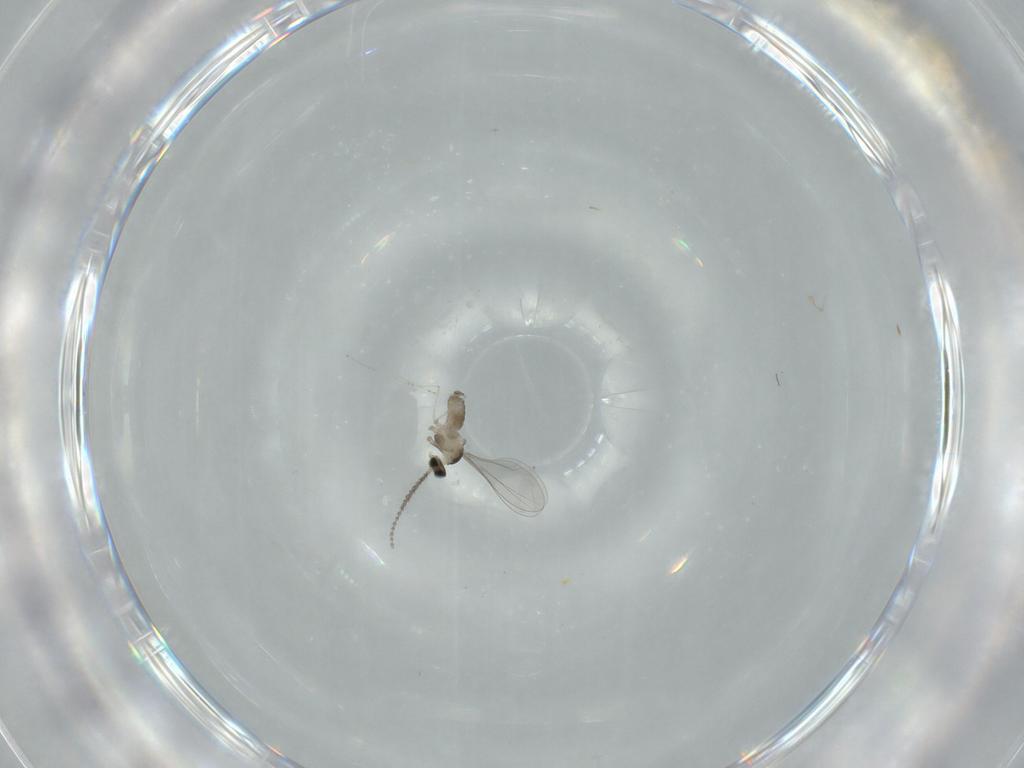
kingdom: Animalia
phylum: Arthropoda
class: Insecta
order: Diptera
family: Cecidomyiidae
